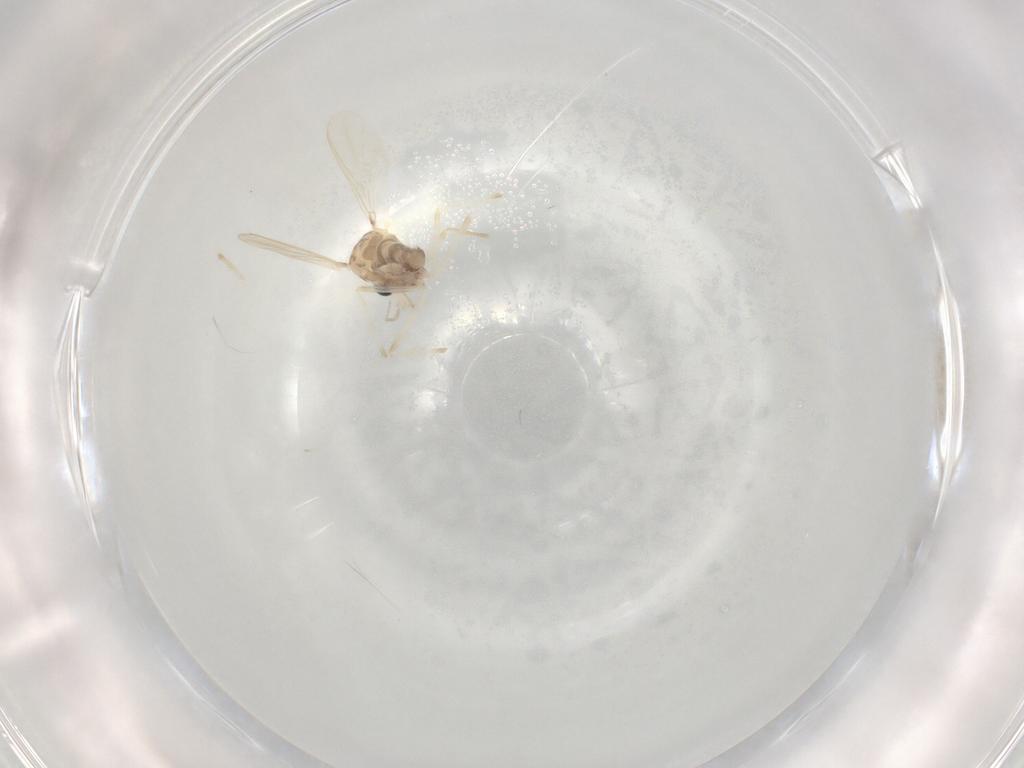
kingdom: Animalia
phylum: Arthropoda
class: Insecta
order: Diptera
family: Chironomidae
